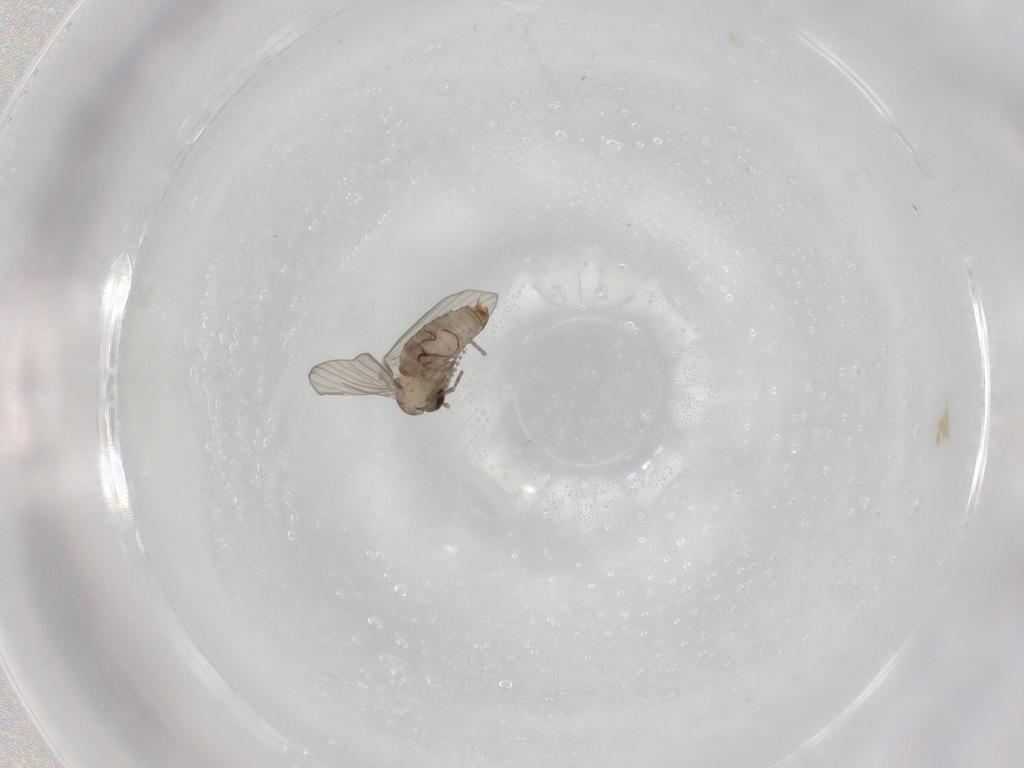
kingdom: Animalia
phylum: Arthropoda
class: Insecta
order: Diptera
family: Psychodidae
